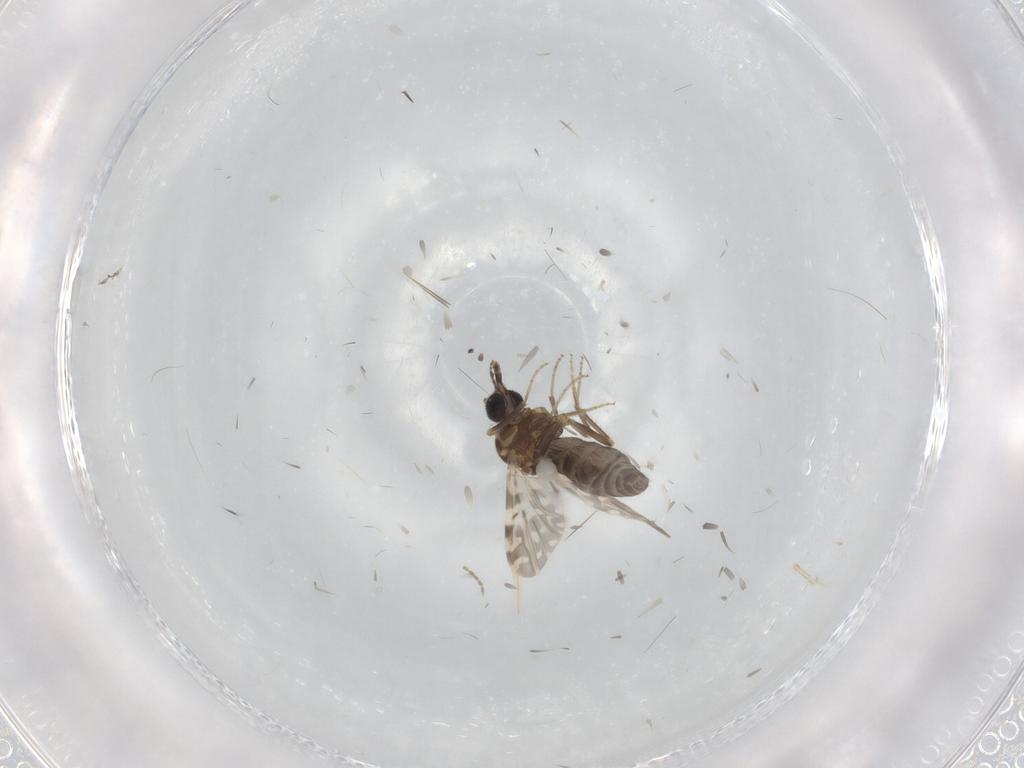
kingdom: Animalia
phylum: Arthropoda
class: Insecta
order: Diptera
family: Ceratopogonidae
